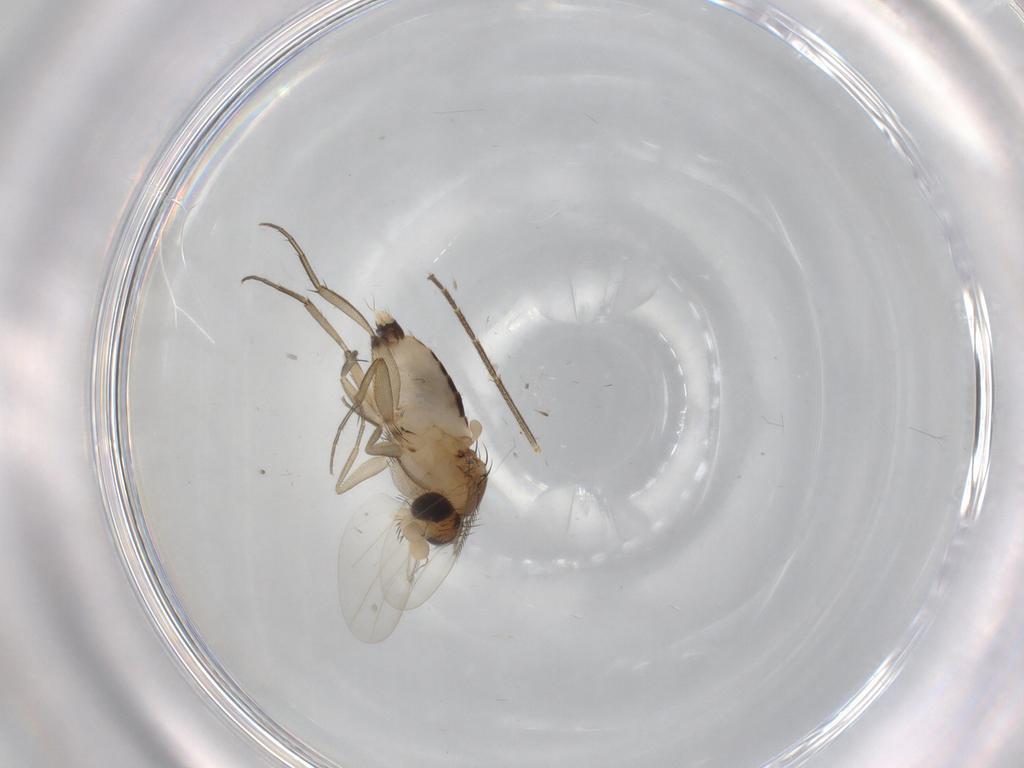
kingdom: Animalia
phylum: Arthropoda
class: Insecta
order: Diptera
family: Phoridae
